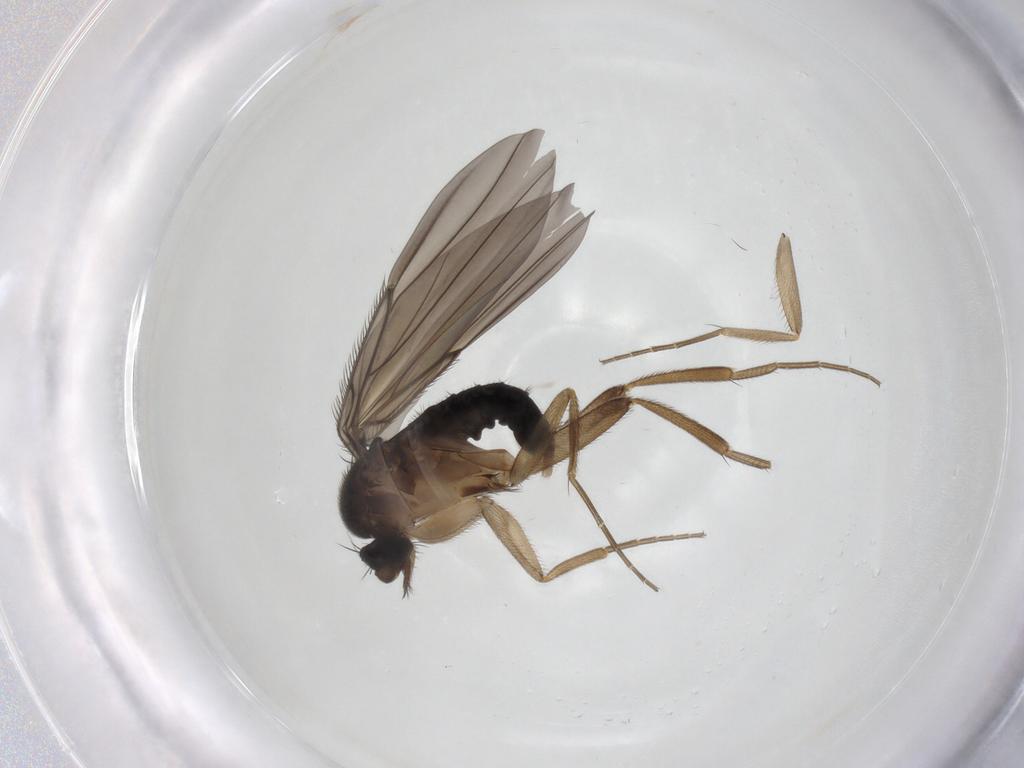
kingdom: Animalia
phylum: Arthropoda
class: Insecta
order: Diptera
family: Phoridae
